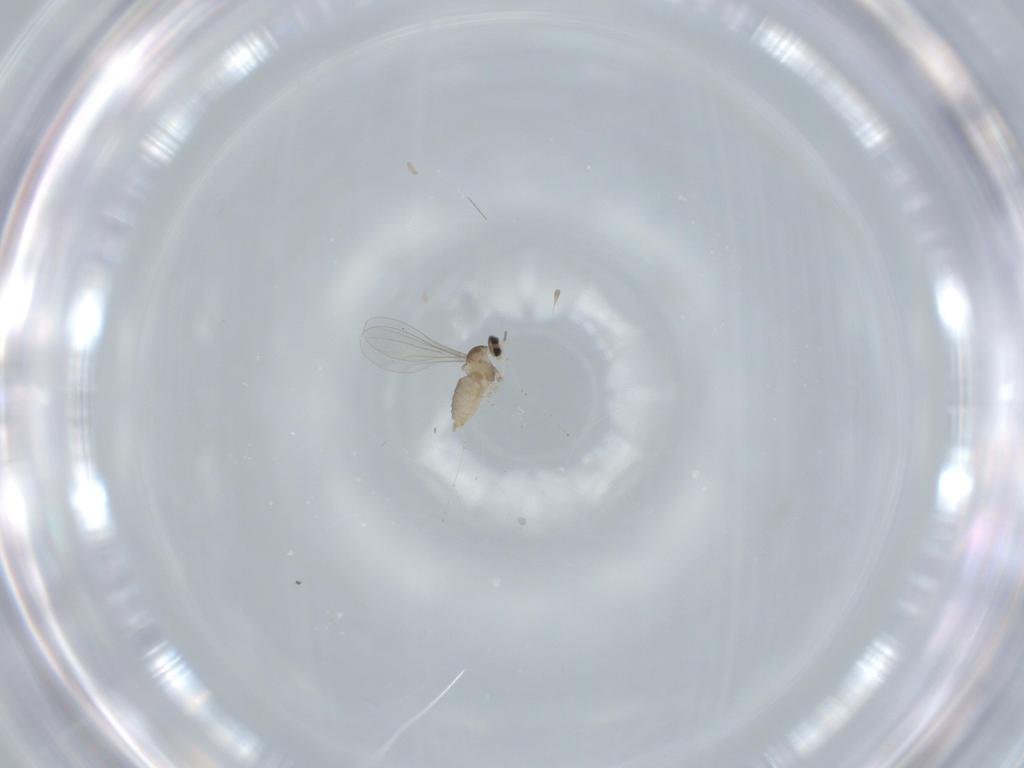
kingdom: Animalia
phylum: Arthropoda
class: Insecta
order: Diptera
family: Cecidomyiidae
